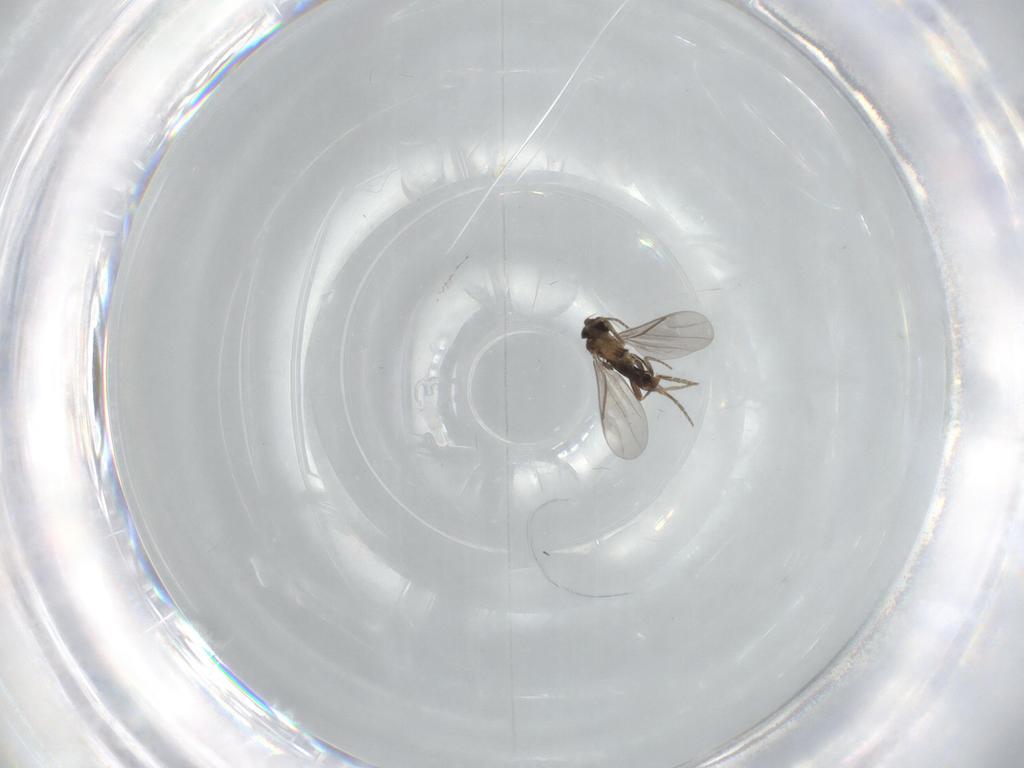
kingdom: Animalia
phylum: Arthropoda
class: Insecta
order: Diptera
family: Phoridae
